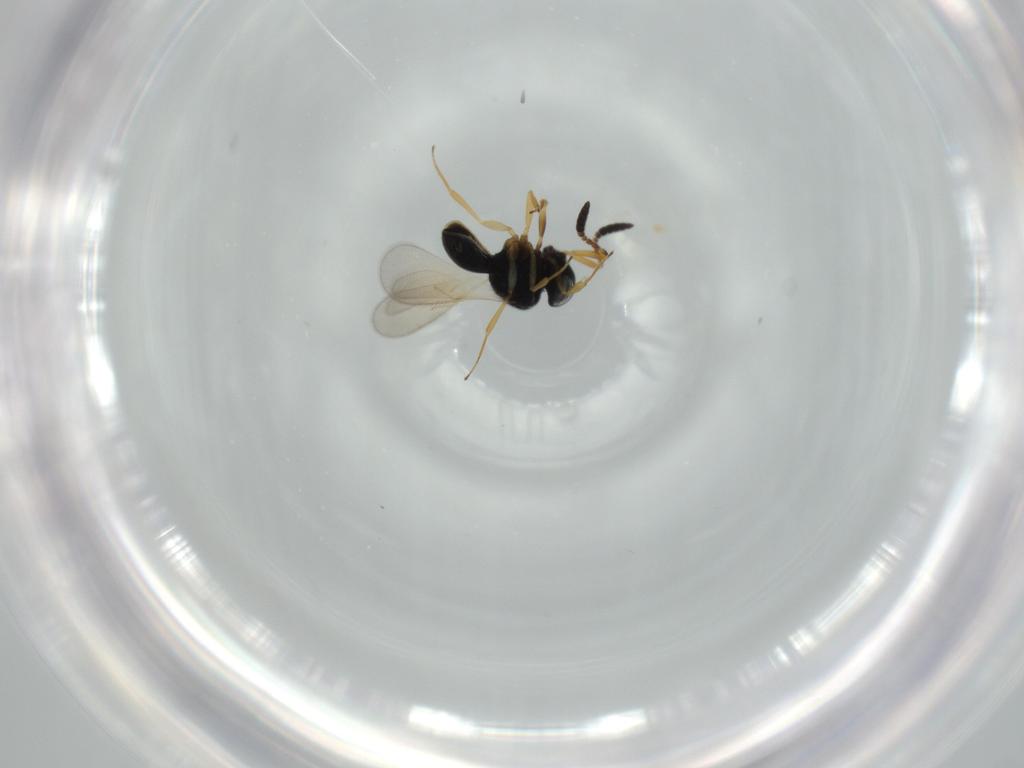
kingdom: Animalia
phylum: Arthropoda
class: Insecta
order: Hymenoptera
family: Scelionidae
